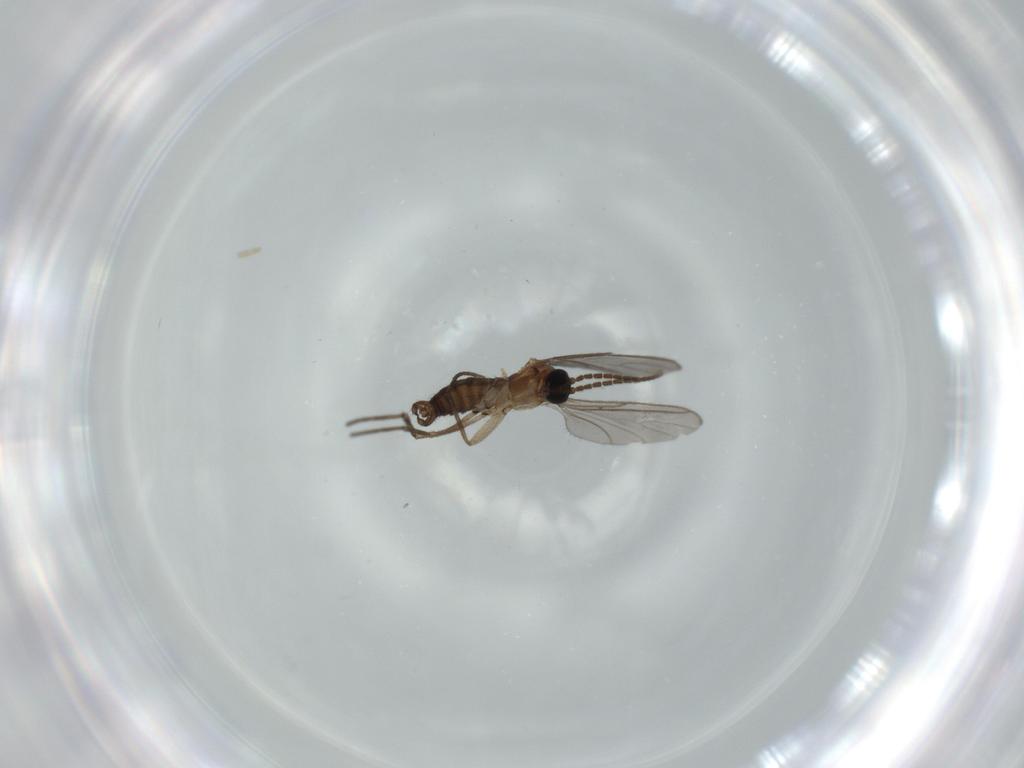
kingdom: Animalia
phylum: Arthropoda
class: Insecta
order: Diptera
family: Sciaridae
